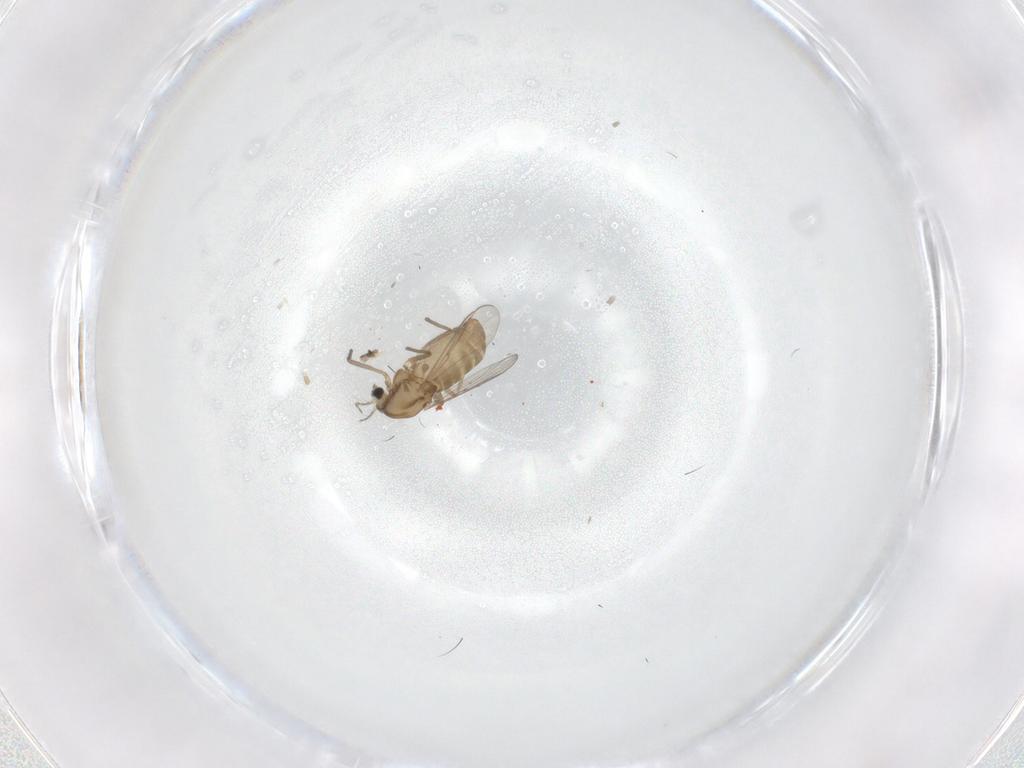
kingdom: Animalia
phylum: Arthropoda
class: Insecta
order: Diptera
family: Chironomidae
